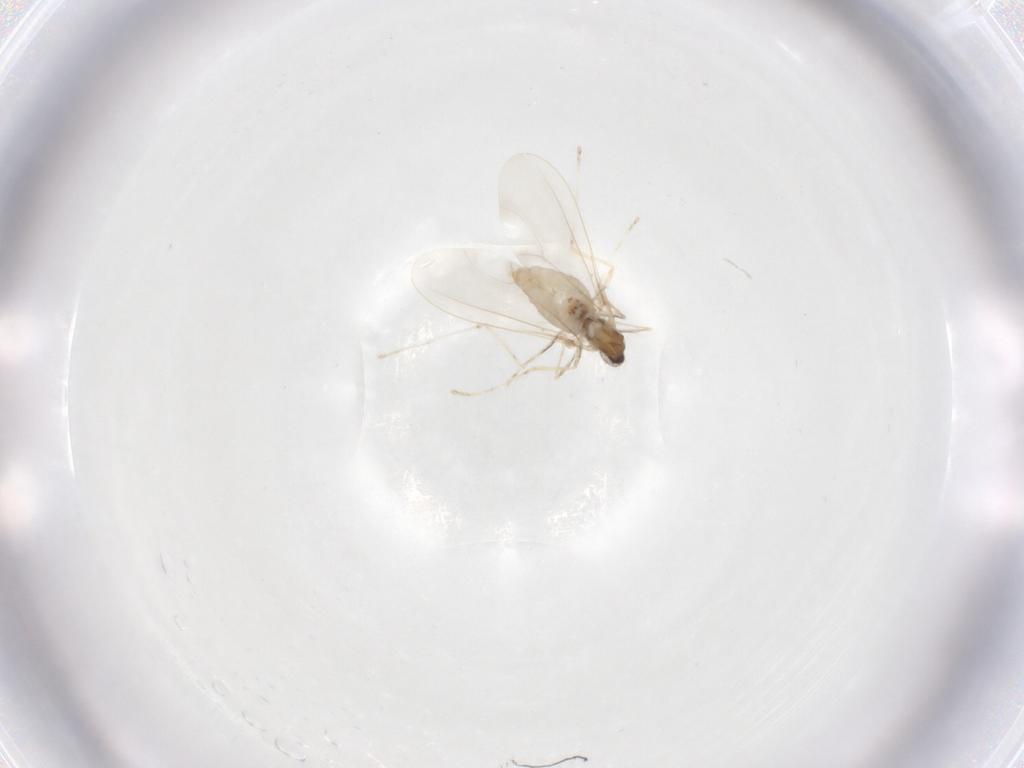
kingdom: Animalia
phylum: Arthropoda
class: Insecta
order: Diptera
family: Cecidomyiidae
